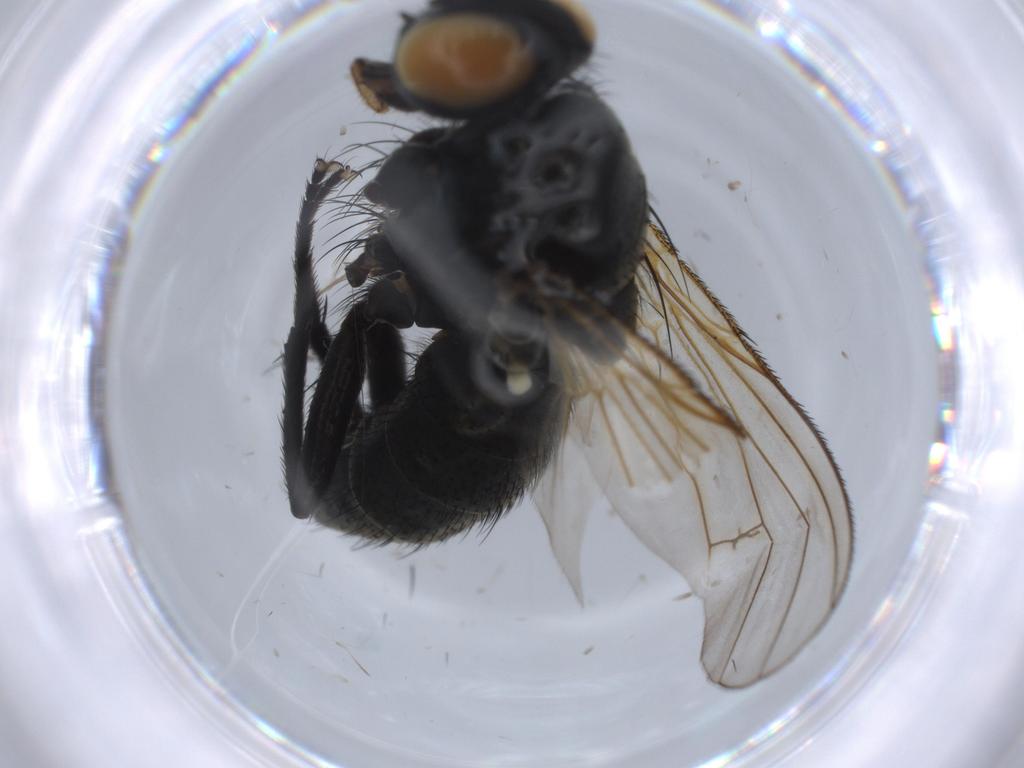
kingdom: Animalia
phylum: Arthropoda
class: Insecta
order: Diptera
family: Muscidae
